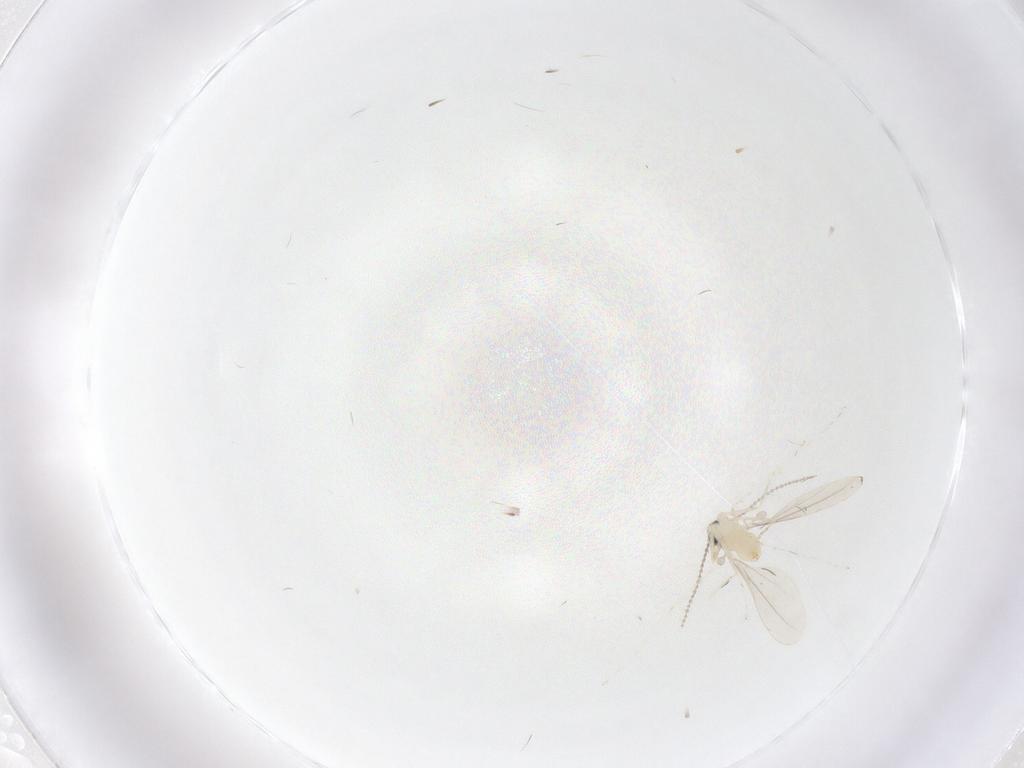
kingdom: Animalia
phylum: Arthropoda
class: Insecta
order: Diptera
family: Cecidomyiidae
